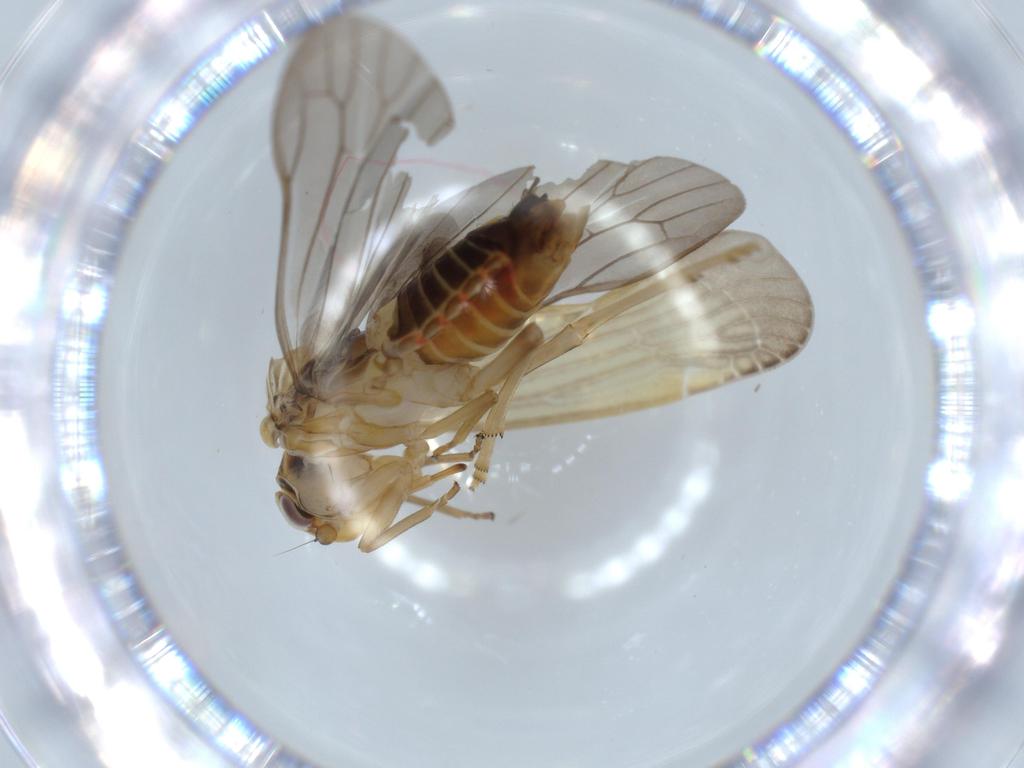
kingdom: Animalia
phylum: Arthropoda
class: Insecta
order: Hemiptera
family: Achilidae
